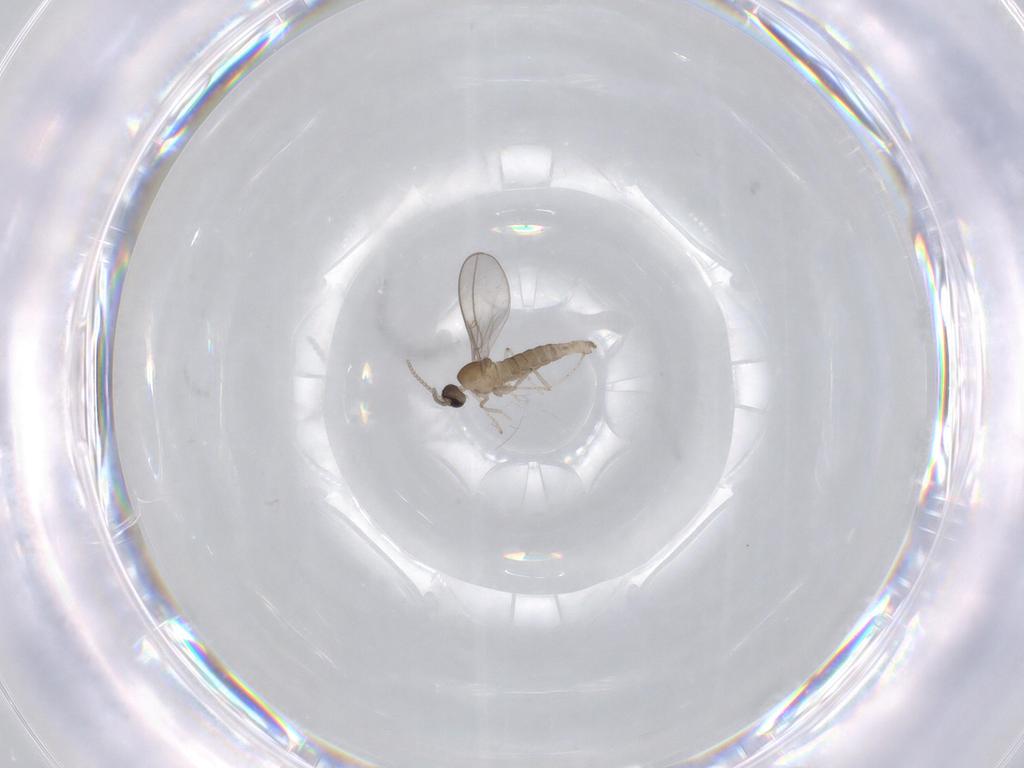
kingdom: Animalia
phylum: Arthropoda
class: Insecta
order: Diptera
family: Cecidomyiidae
